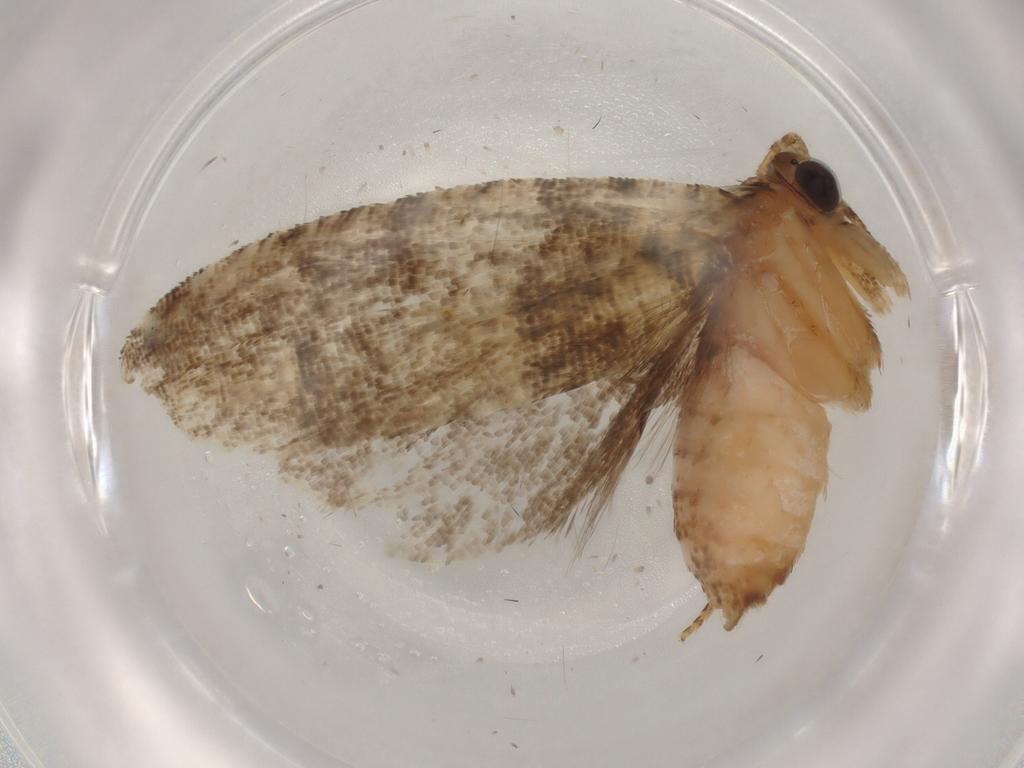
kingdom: Animalia
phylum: Arthropoda
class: Insecta
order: Lepidoptera
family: Tortricidae
